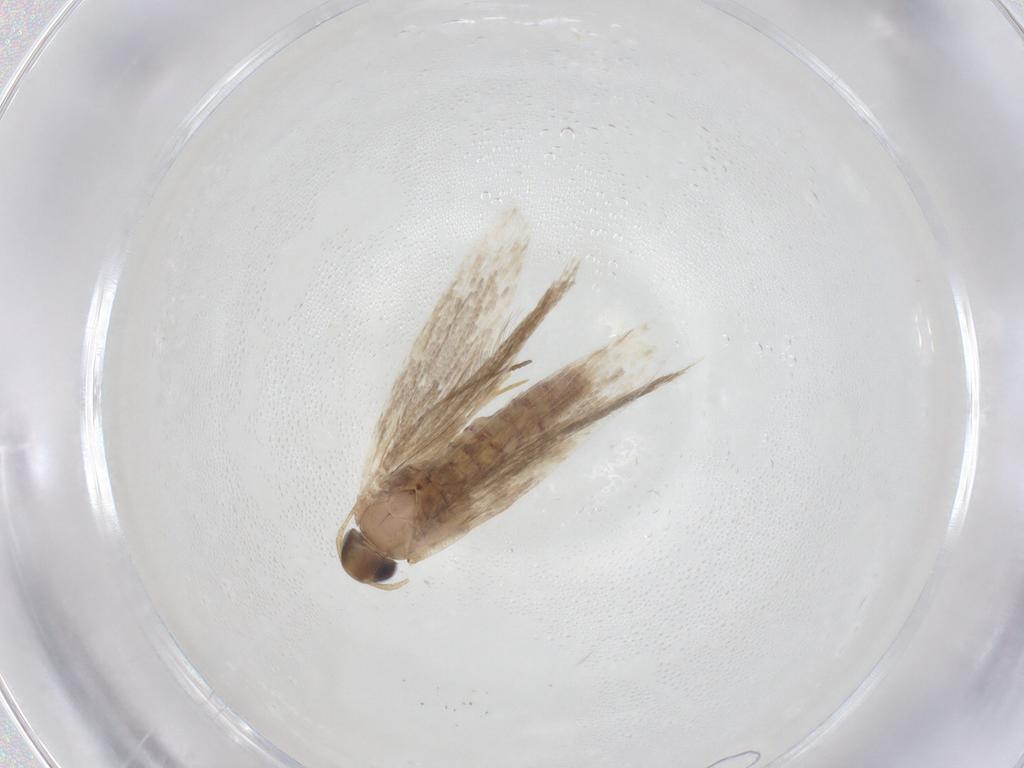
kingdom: Animalia
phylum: Arthropoda
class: Insecta
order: Lepidoptera
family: Gelechiidae
